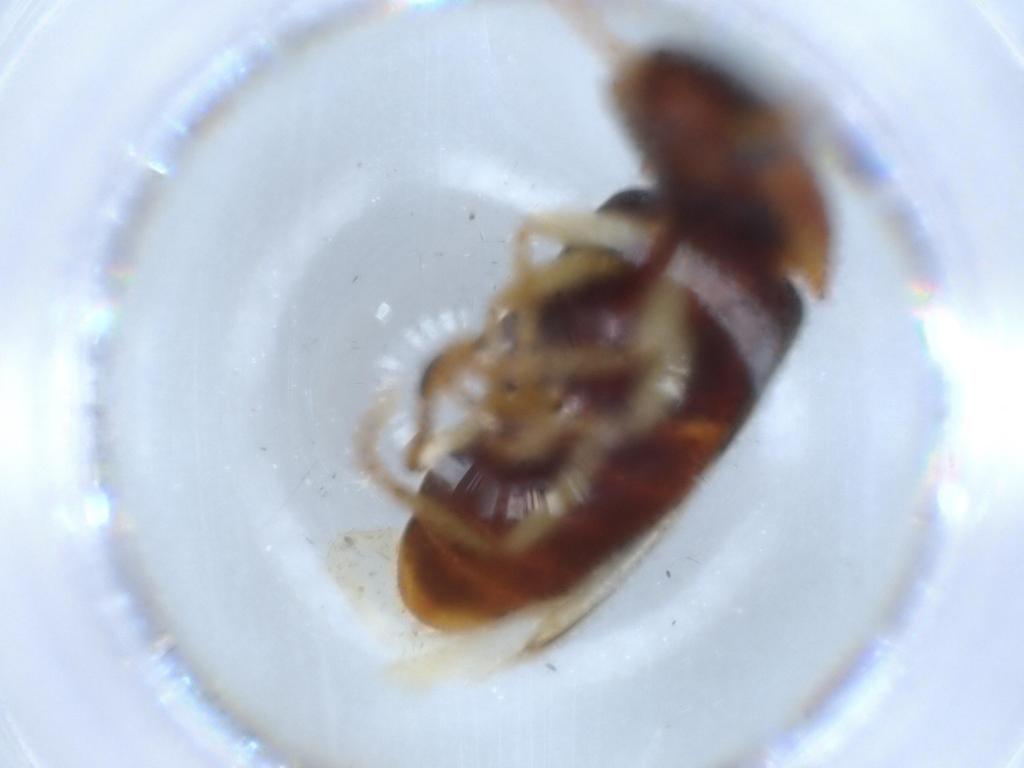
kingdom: Animalia
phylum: Arthropoda
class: Insecta
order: Coleoptera
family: Elateridae
